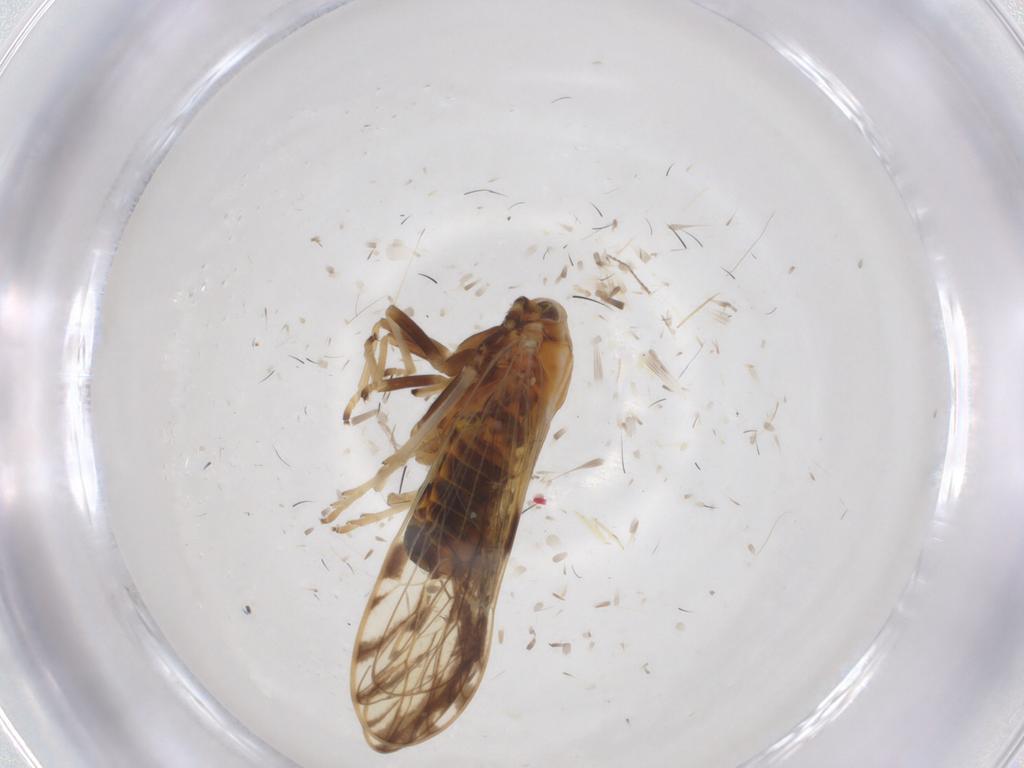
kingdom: Animalia
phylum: Arthropoda
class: Insecta
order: Hemiptera
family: Delphacidae
